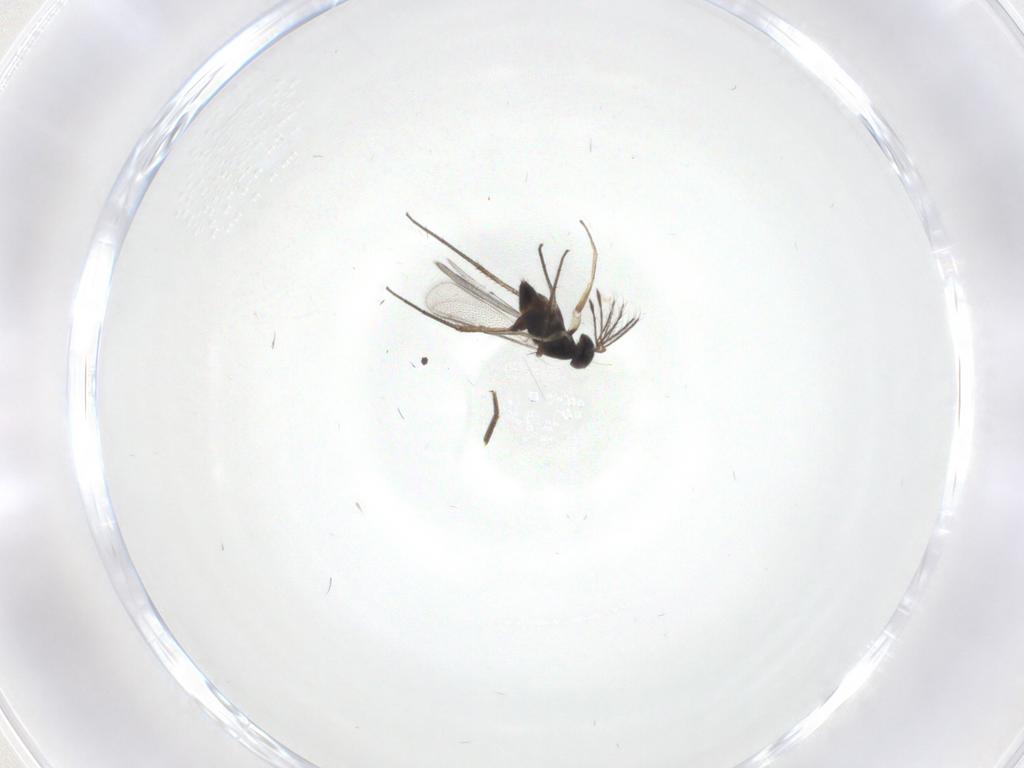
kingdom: Animalia
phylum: Arthropoda
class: Insecta
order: Hymenoptera
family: Eulophidae
